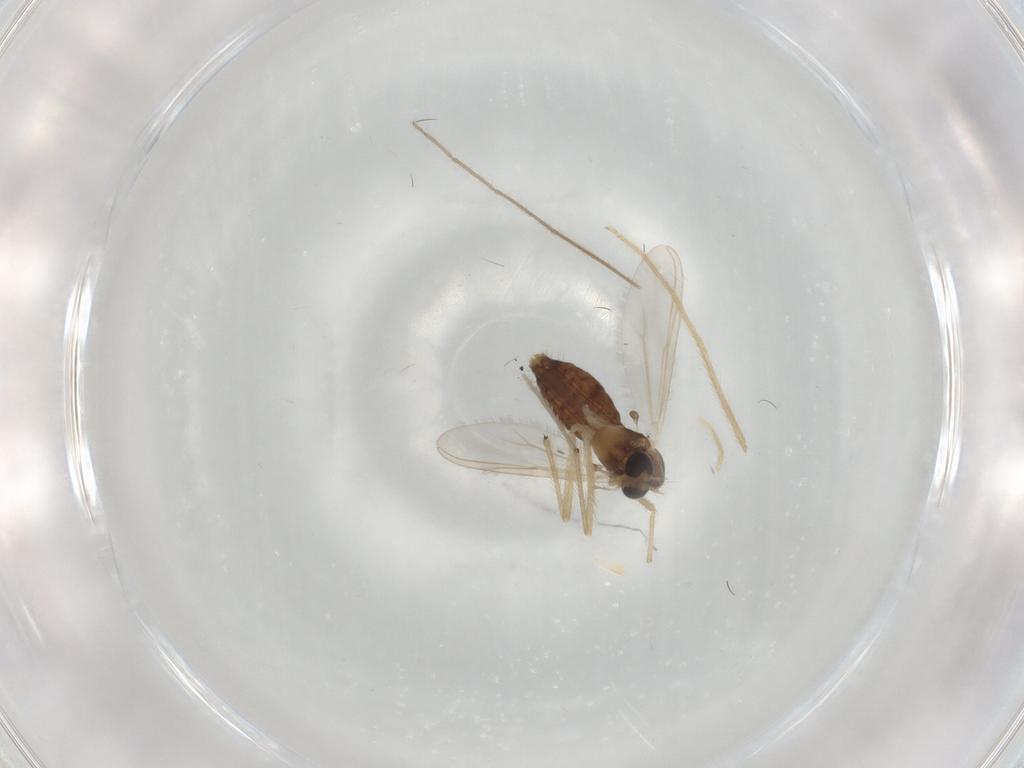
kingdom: Animalia
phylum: Arthropoda
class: Insecta
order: Diptera
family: Chironomidae
